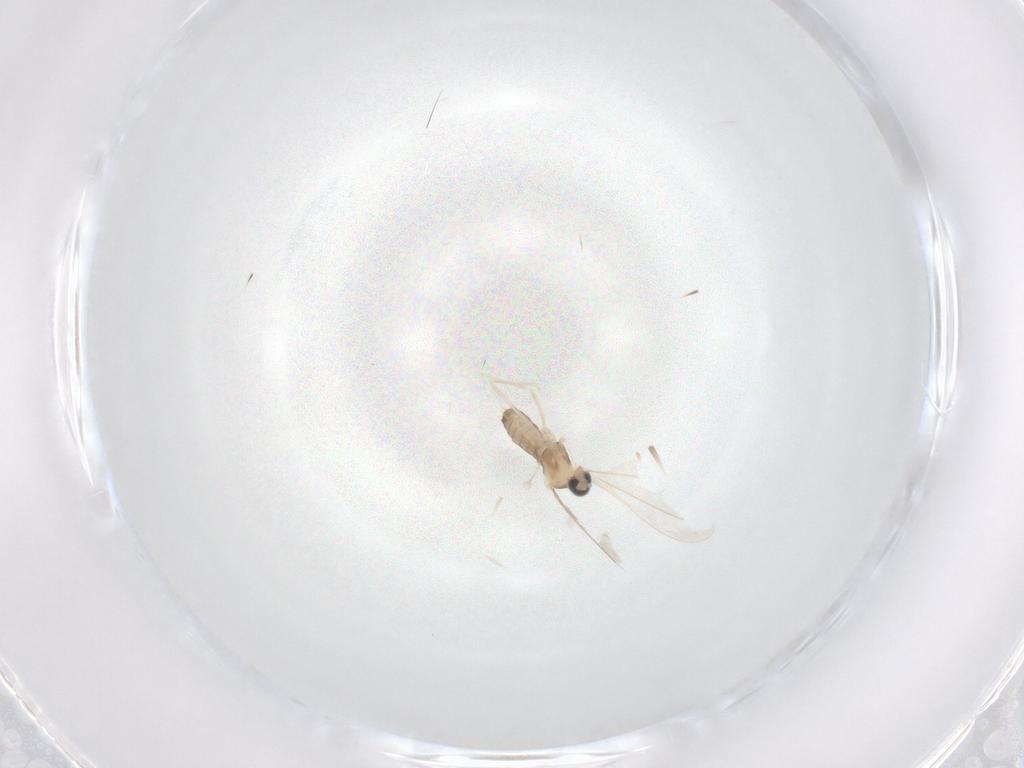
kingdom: Animalia
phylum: Arthropoda
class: Insecta
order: Diptera
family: Cecidomyiidae
